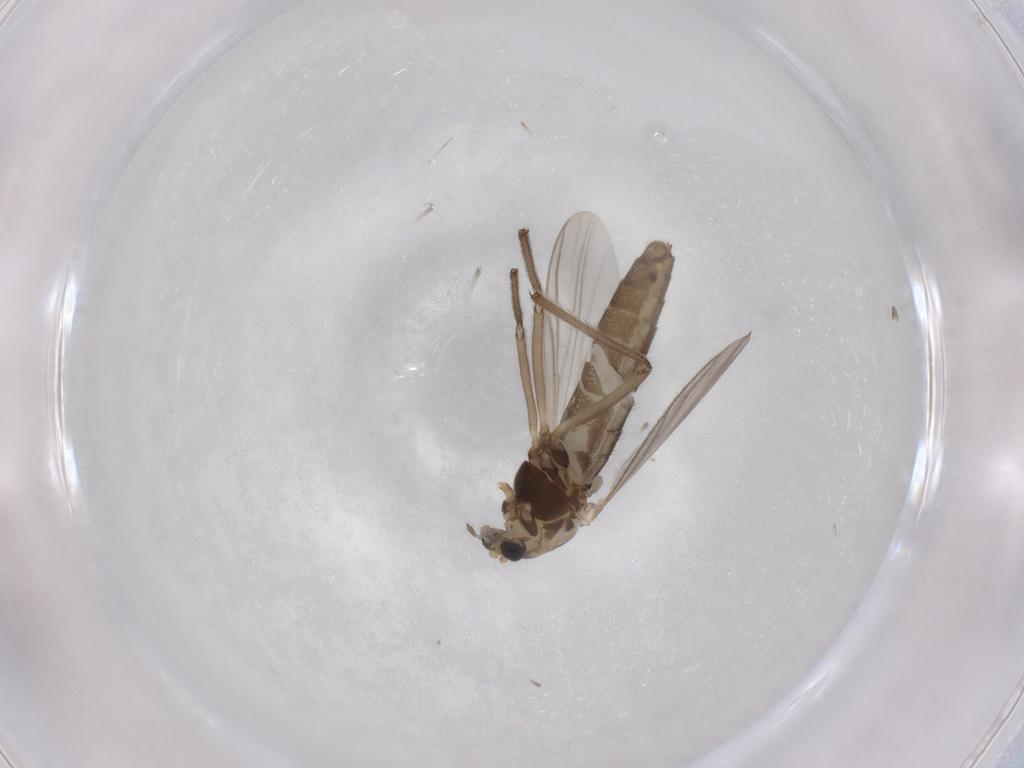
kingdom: Animalia
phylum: Arthropoda
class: Insecta
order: Diptera
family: Chironomidae
